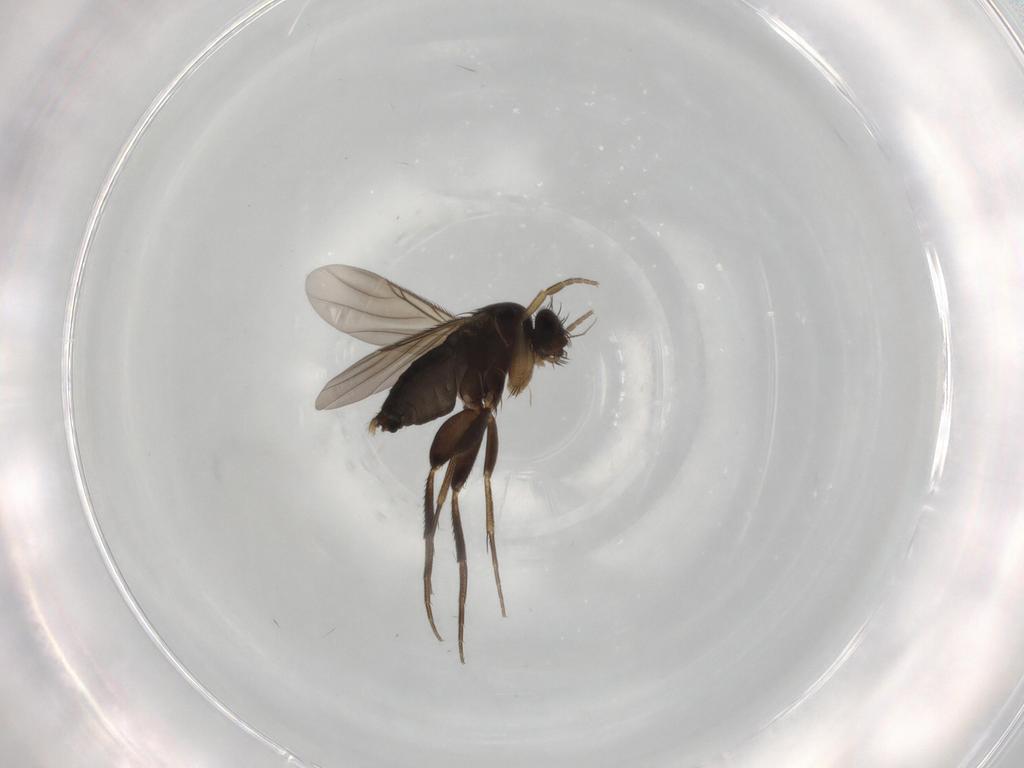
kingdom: Animalia
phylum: Arthropoda
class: Insecta
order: Diptera
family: Phoridae
